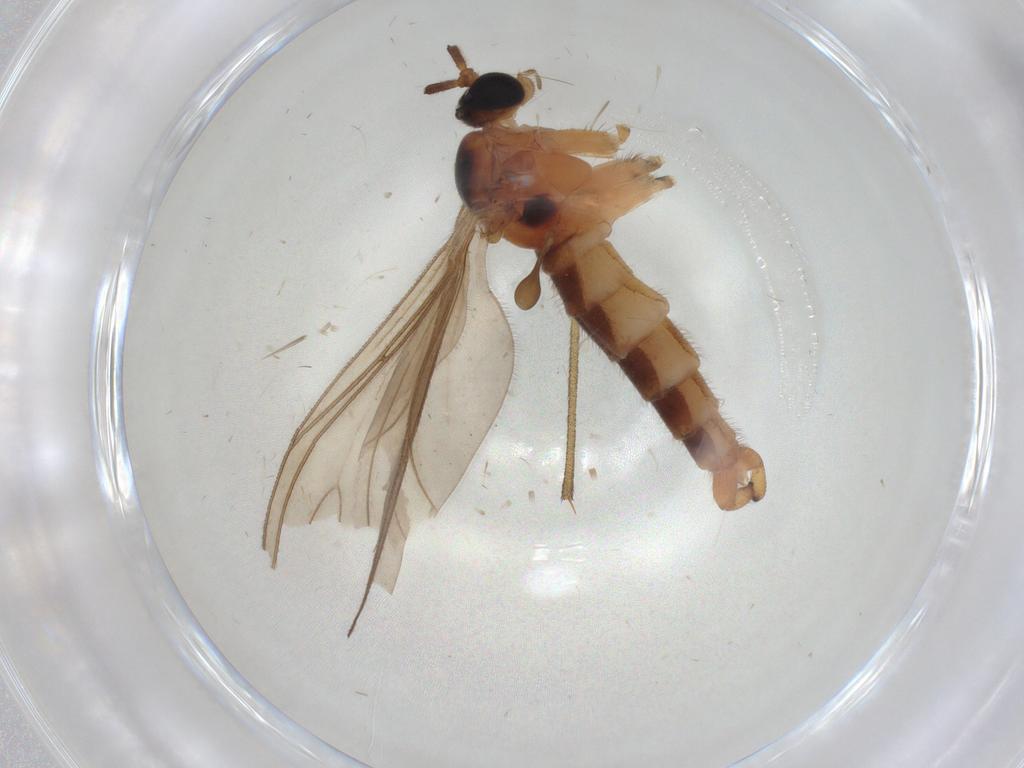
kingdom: Animalia
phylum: Arthropoda
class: Insecta
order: Diptera
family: Sciaridae
